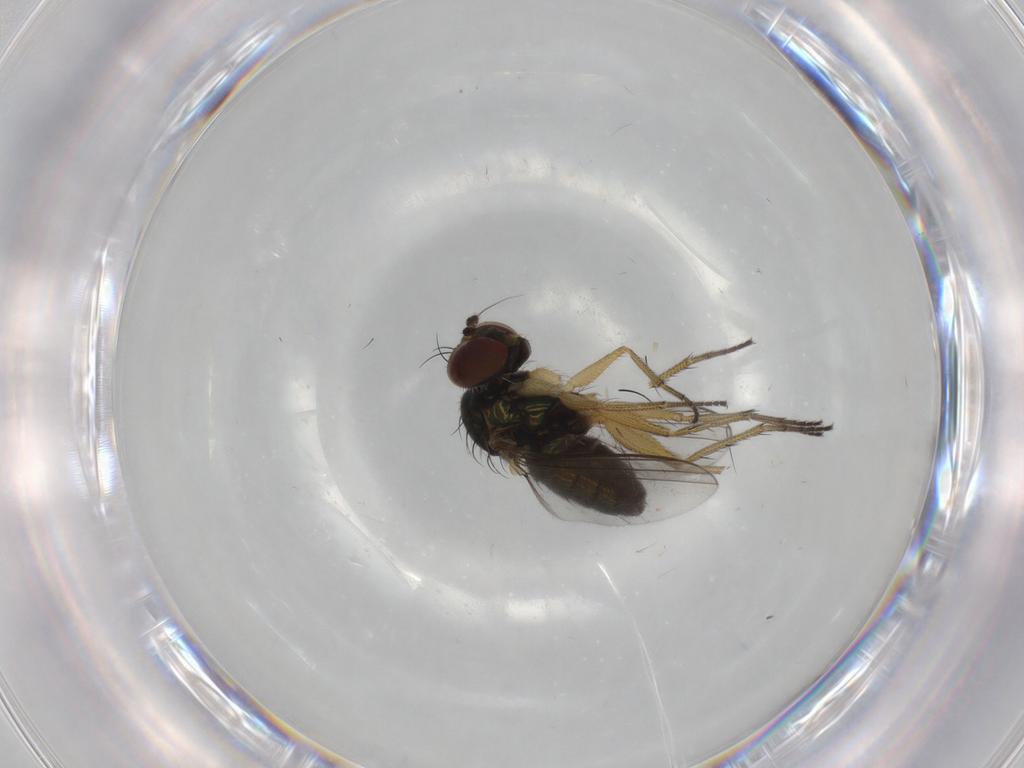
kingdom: Animalia
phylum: Arthropoda
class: Insecta
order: Diptera
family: Dolichopodidae
